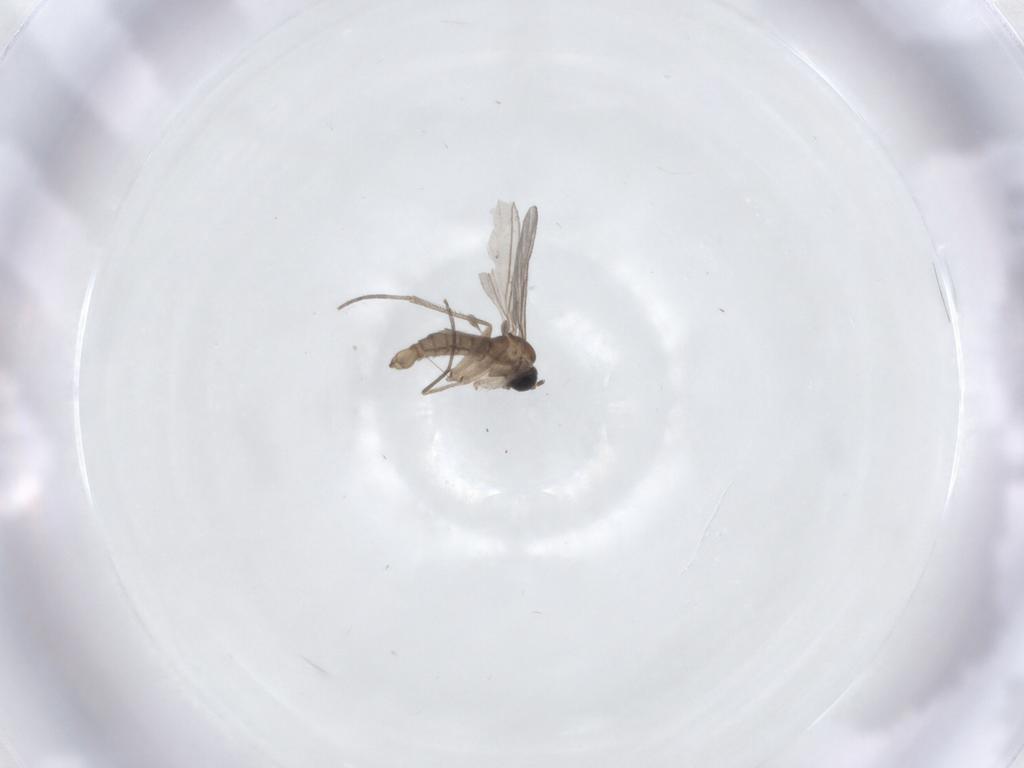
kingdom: Animalia
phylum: Arthropoda
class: Insecta
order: Diptera
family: Sciaridae
